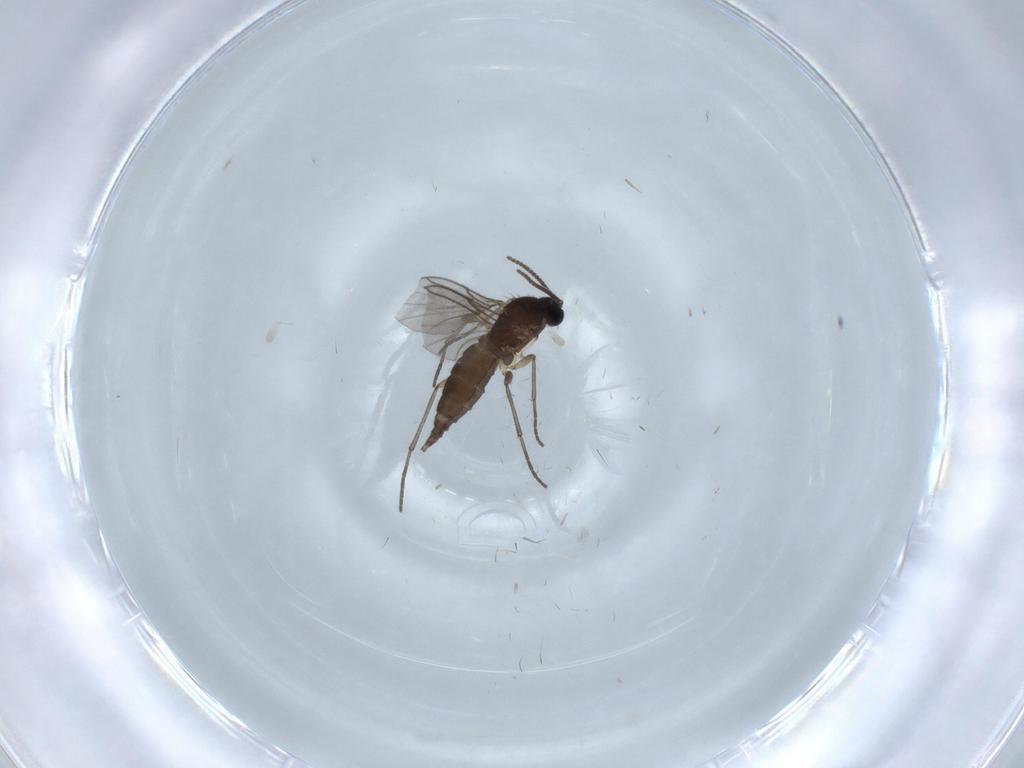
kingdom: Animalia
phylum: Arthropoda
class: Insecta
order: Diptera
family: Sciaridae
